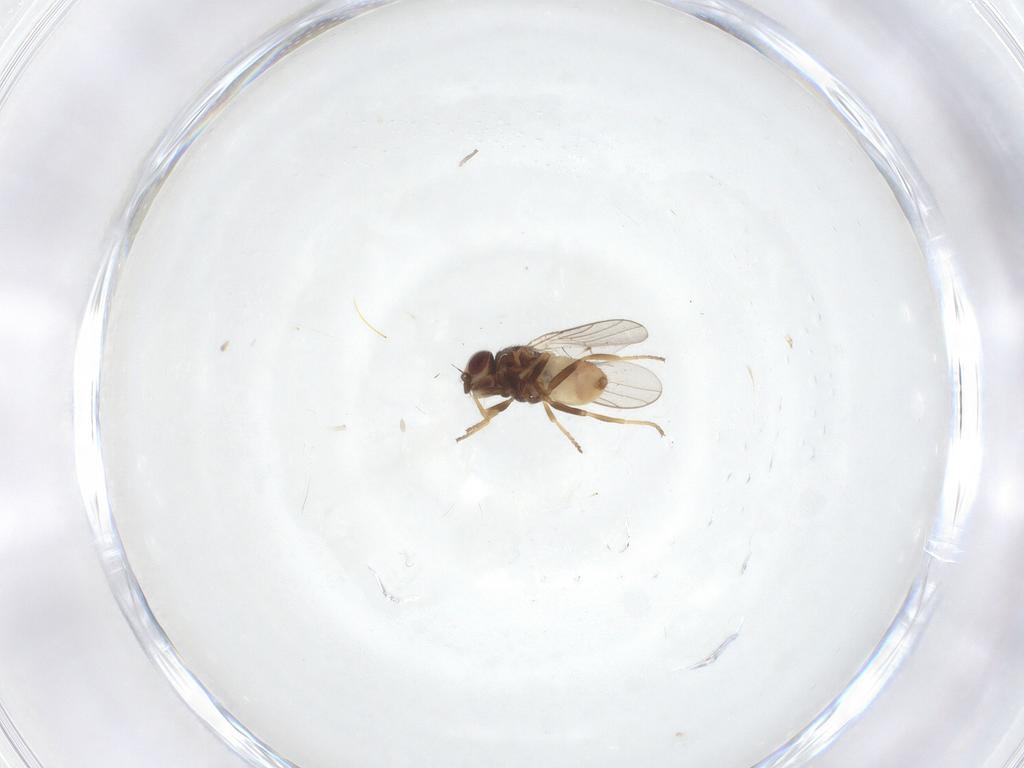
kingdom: Animalia
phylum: Arthropoda
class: Insecta
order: Diptera
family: Chloropidae
